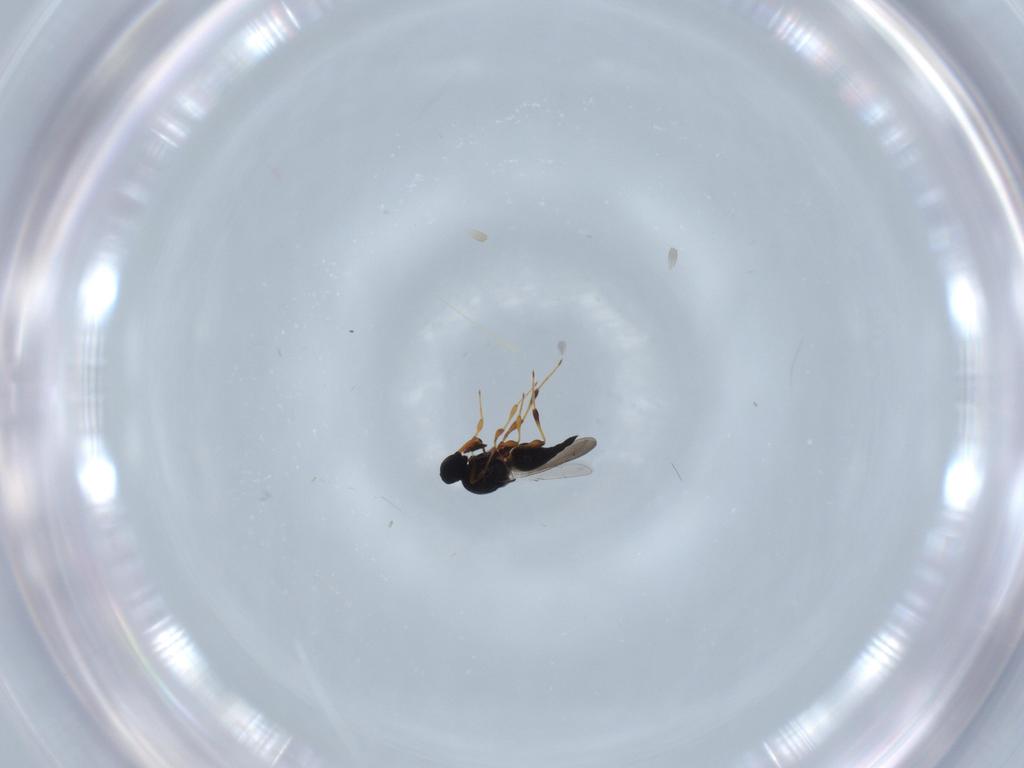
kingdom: Animalia
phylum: Arthropoda
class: Insecta
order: Hymenoptera
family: Platygastridae
